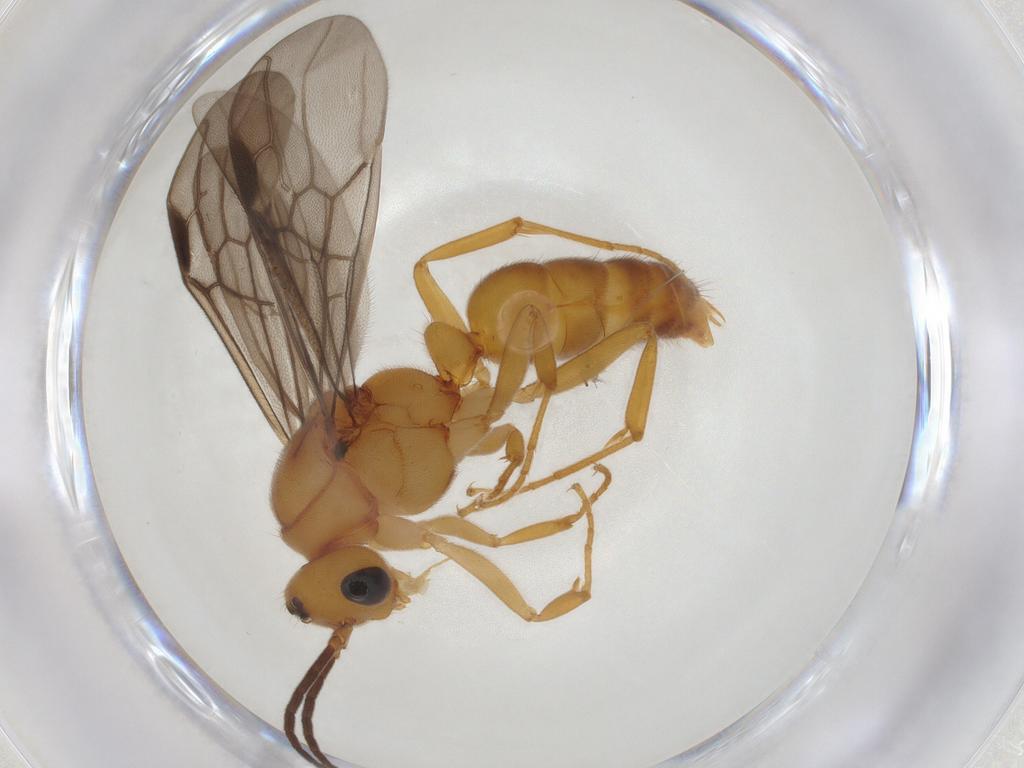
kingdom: Animalia
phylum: Arthropoda
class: Insecta
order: Hymenoptera
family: Formicidae
